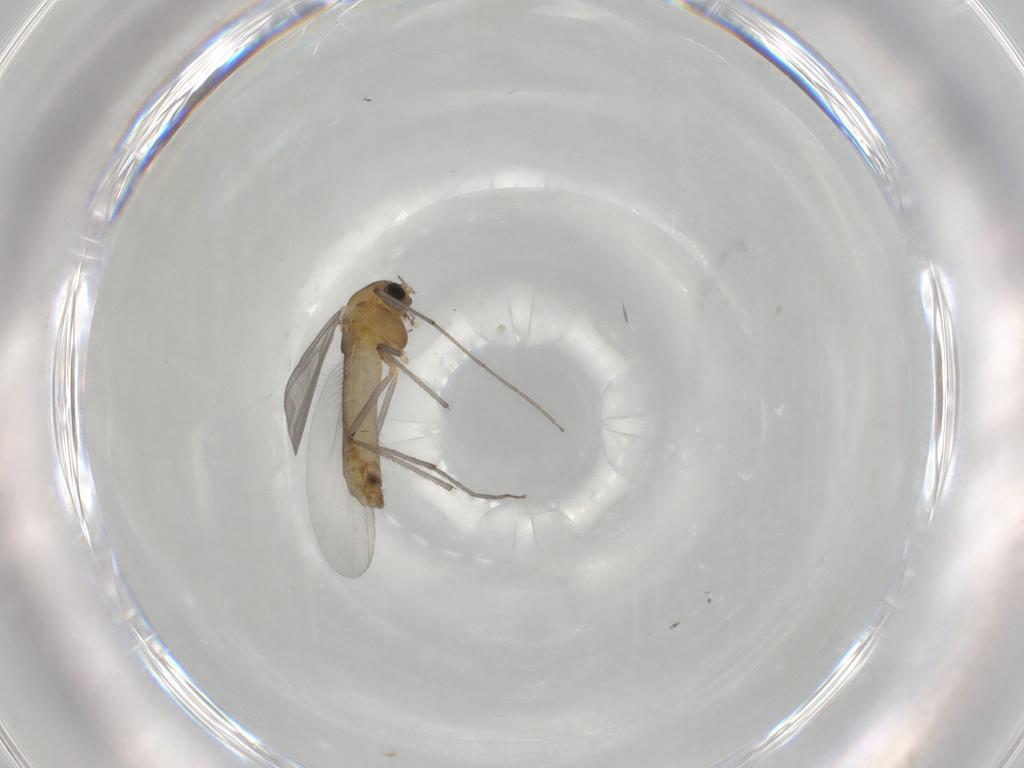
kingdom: Animalia
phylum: Arthropoda
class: Insecta
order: Diptera
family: Chironomidae
